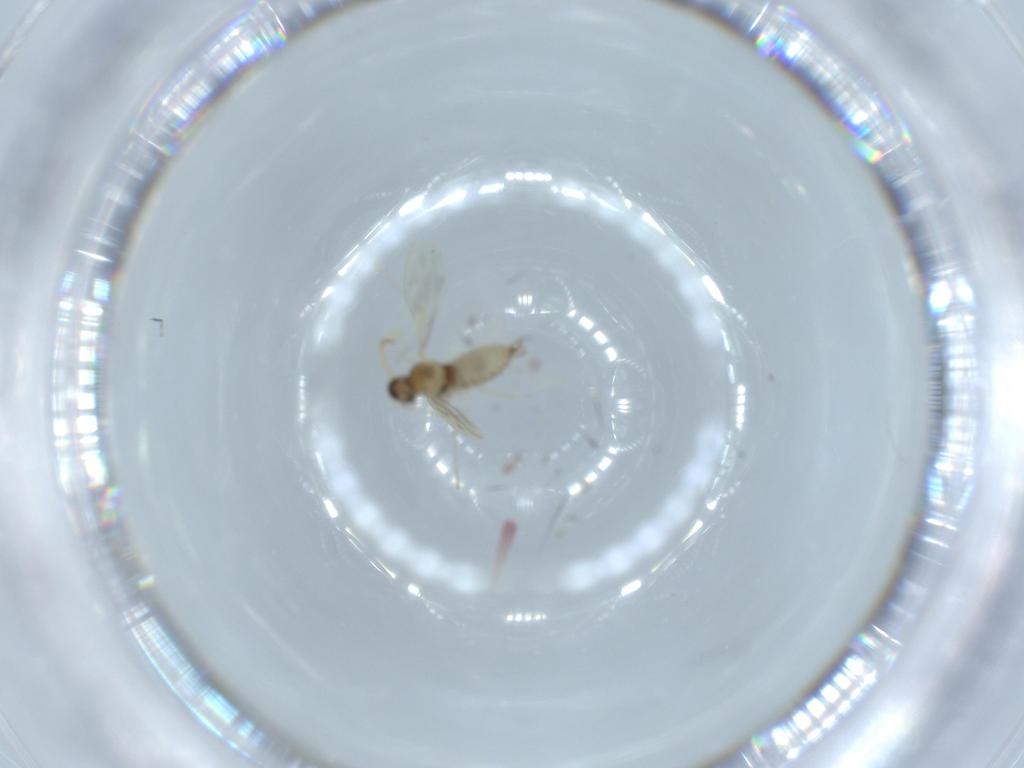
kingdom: Animalia
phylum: Arthropoda
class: Insecta
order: Diptera
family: Cecidomyiidae
